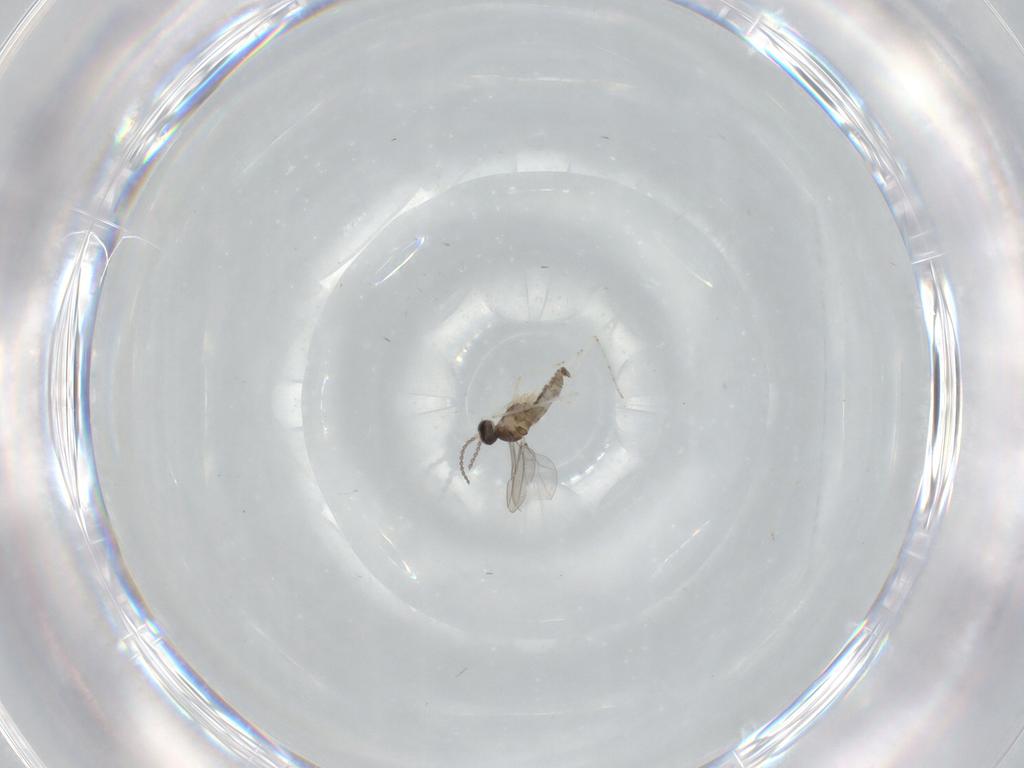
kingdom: Animalia
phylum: Arthropoda
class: Insecta
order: Diptera
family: Cecidomyiidae
